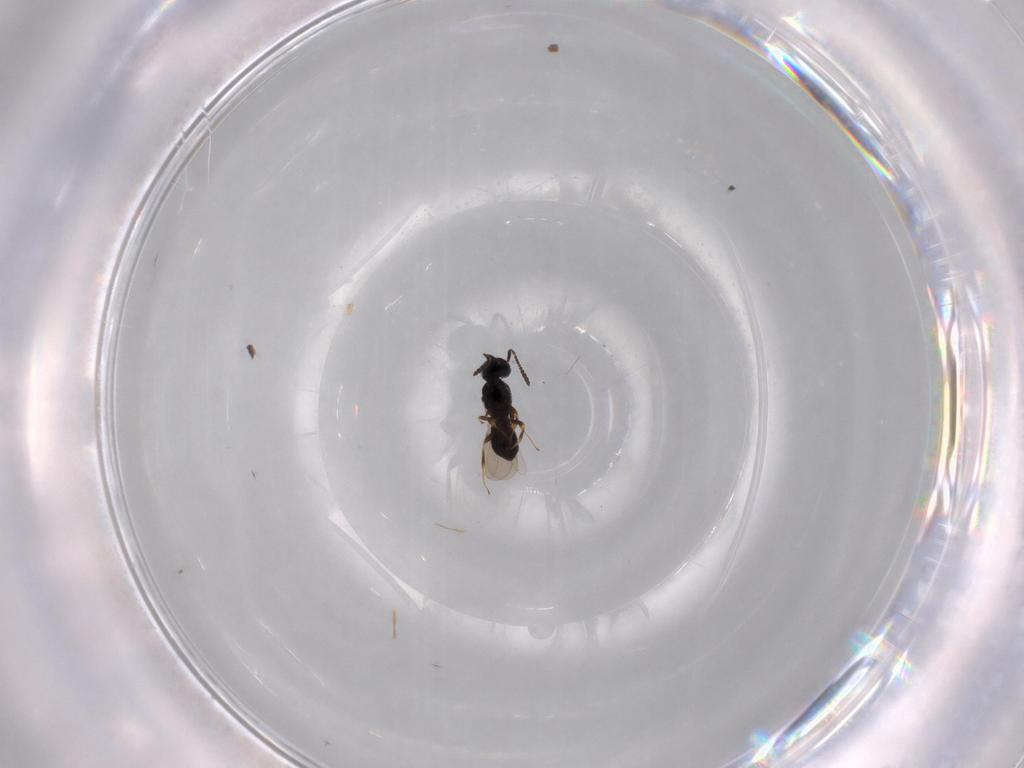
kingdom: Animalia
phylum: Arthropoda
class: Insecta
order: Hymenoptera
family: Scelionidae
